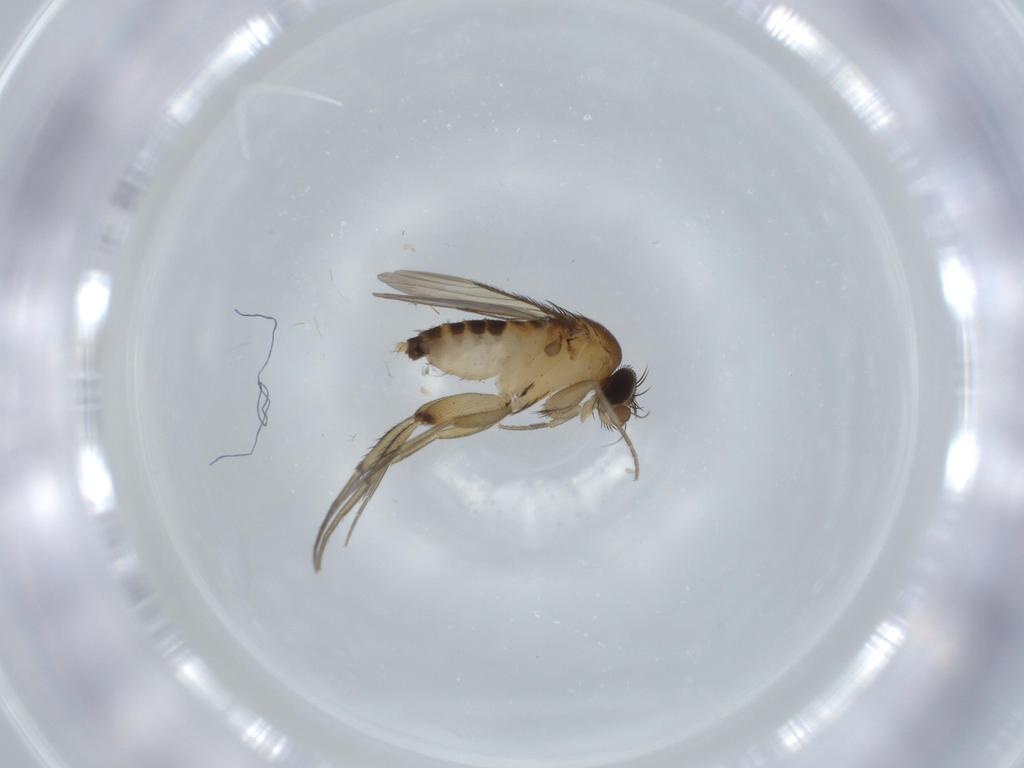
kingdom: Animalia
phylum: Arthropoda
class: Insecta
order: Diptera
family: Phoridae
